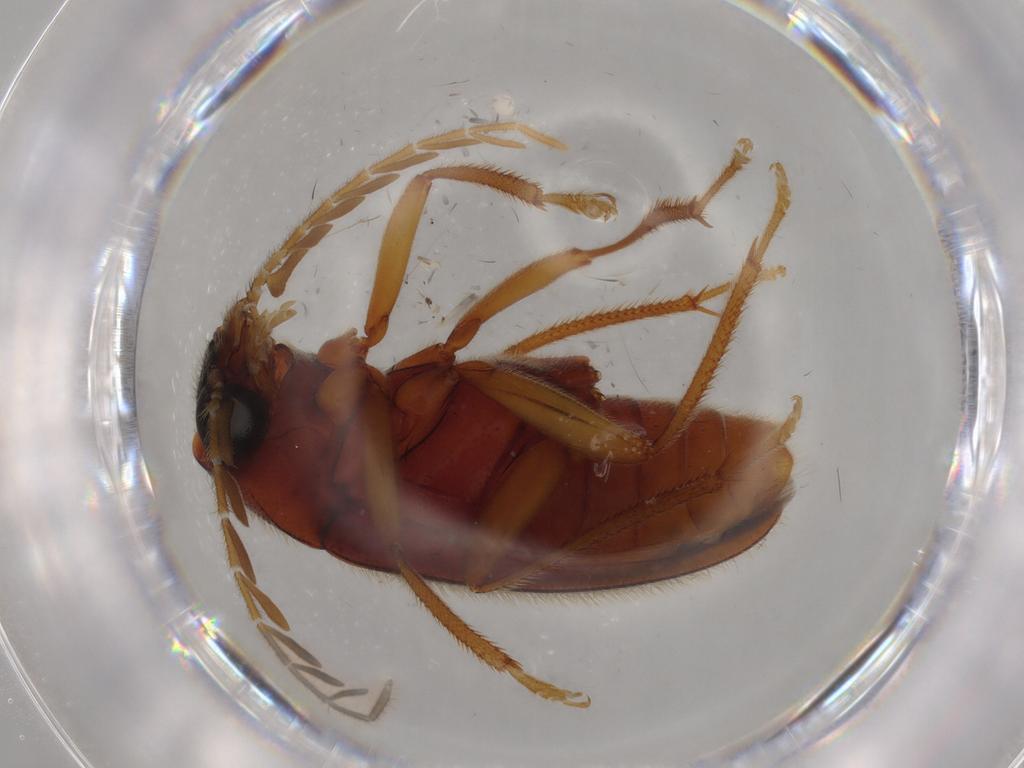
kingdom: Animalia
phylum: Arthropoda
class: Insecta
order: Coleoptera
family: Ptilodactylidae
